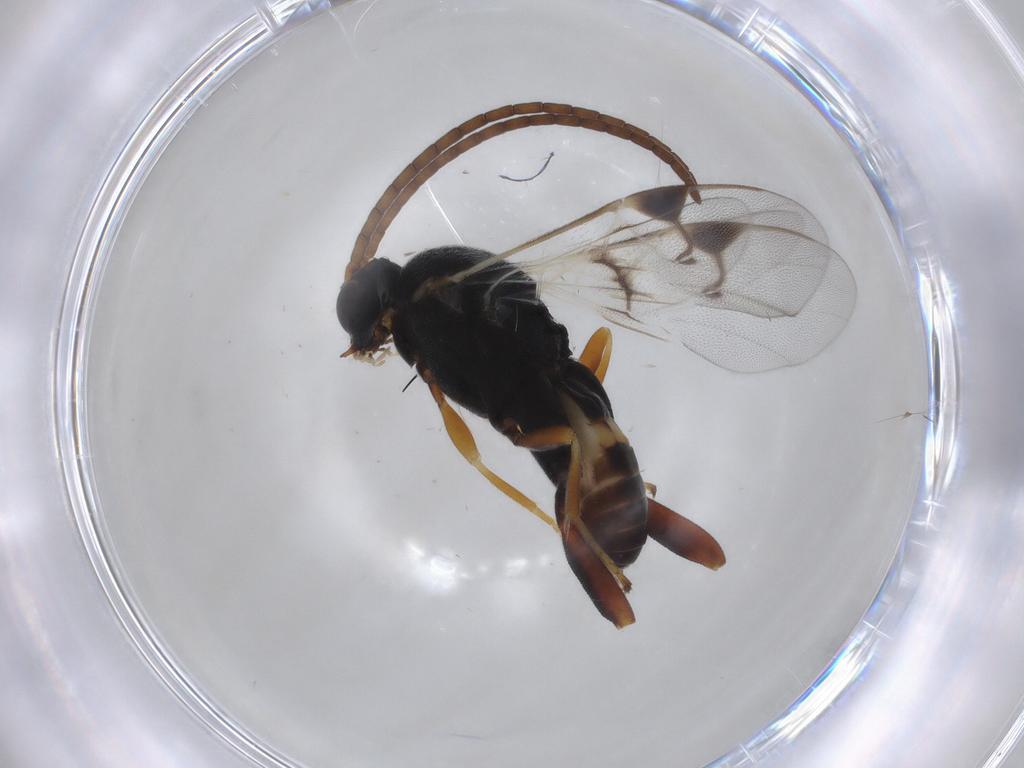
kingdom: Animalia
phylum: Arthropoda
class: Insecta
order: Hymenoptera
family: Braconidae
